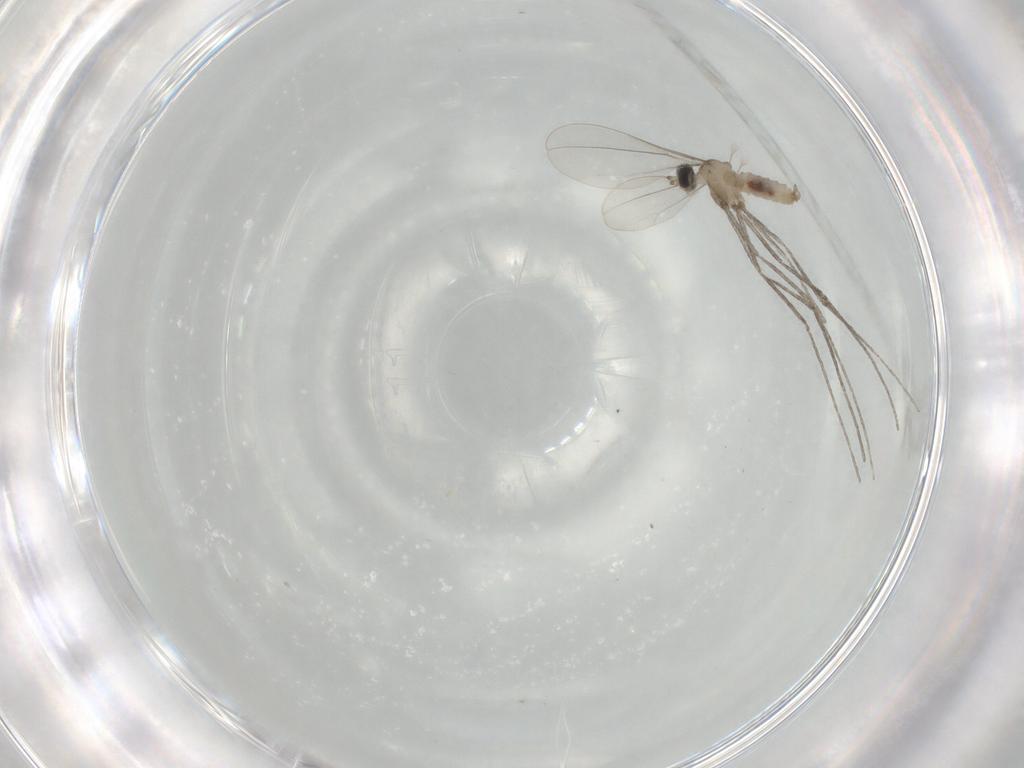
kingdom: Animalia
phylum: Arthropoda
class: Insecta
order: Diptera
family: Cecidomyiidae
